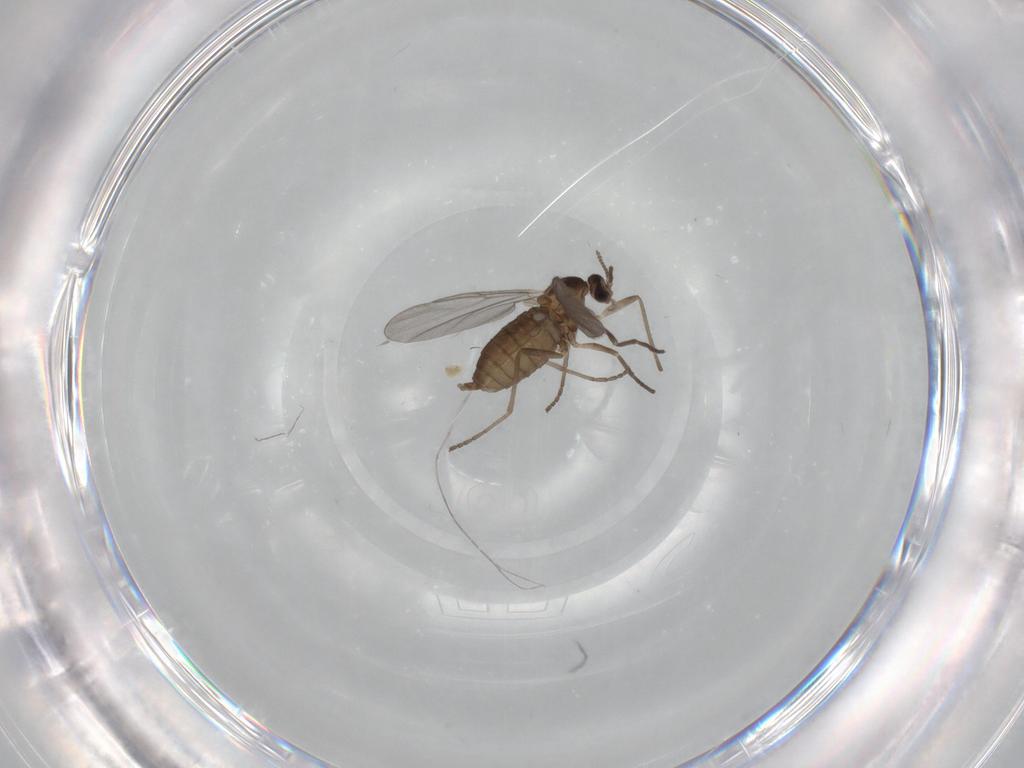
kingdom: Animalia
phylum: Arthropoda
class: Insecta
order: Diptera
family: Cecidomyiidae
